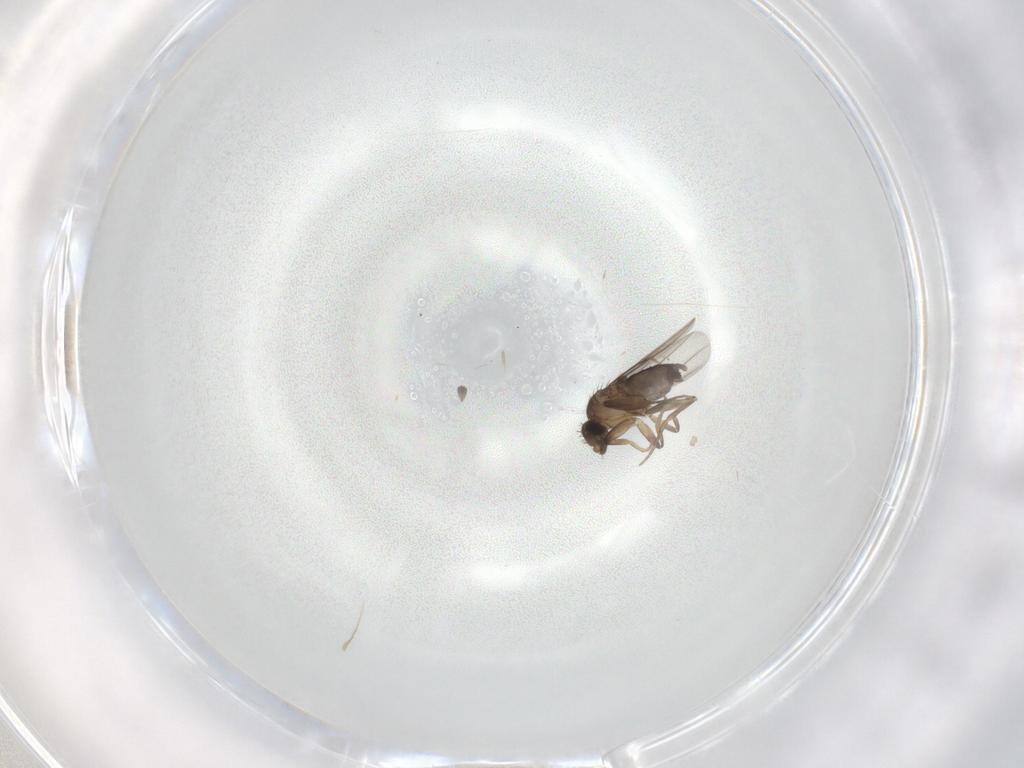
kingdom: Animalia
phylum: Arthropoda
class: Insecta
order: Diptera
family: Phoridae
